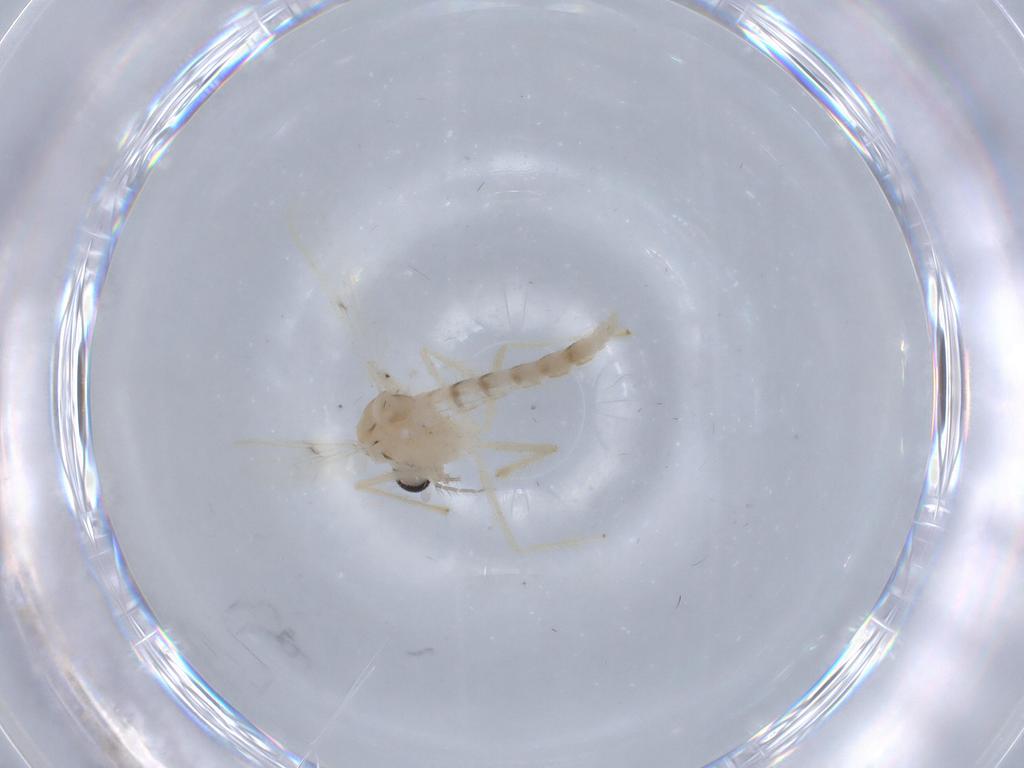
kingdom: Animalia
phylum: Arthropoda
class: Insecta
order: Diptera
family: Chironomidae
